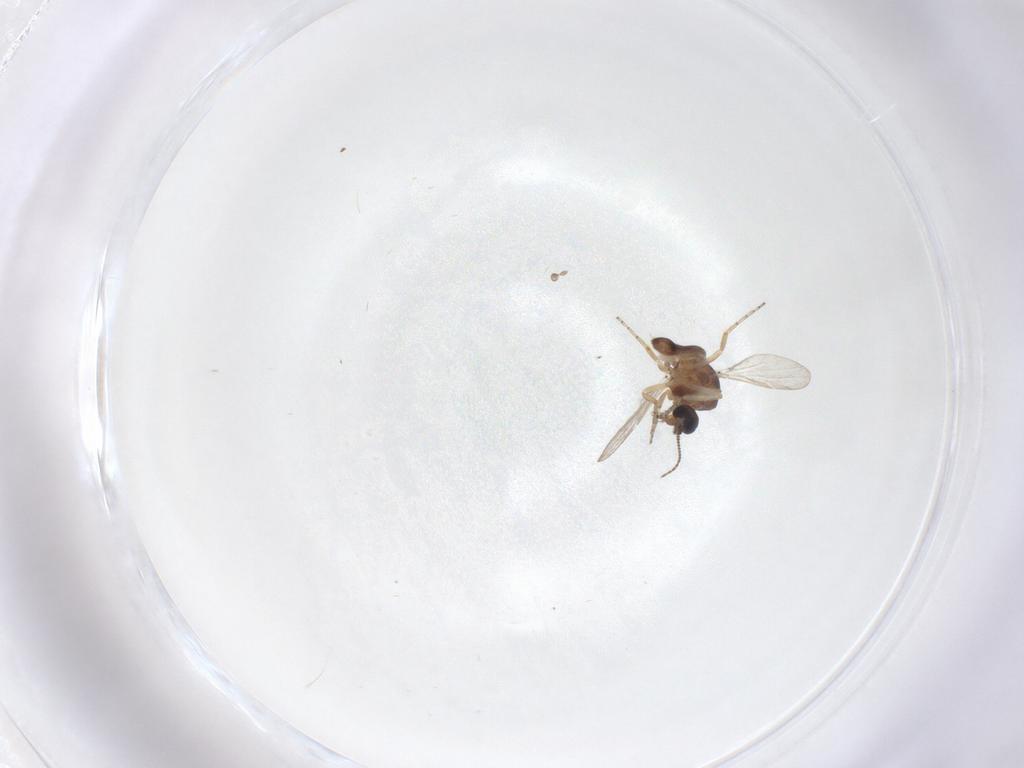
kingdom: Animalia
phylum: Arthropoda
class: Insecta
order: Diptera
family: Ceratopogonidae
